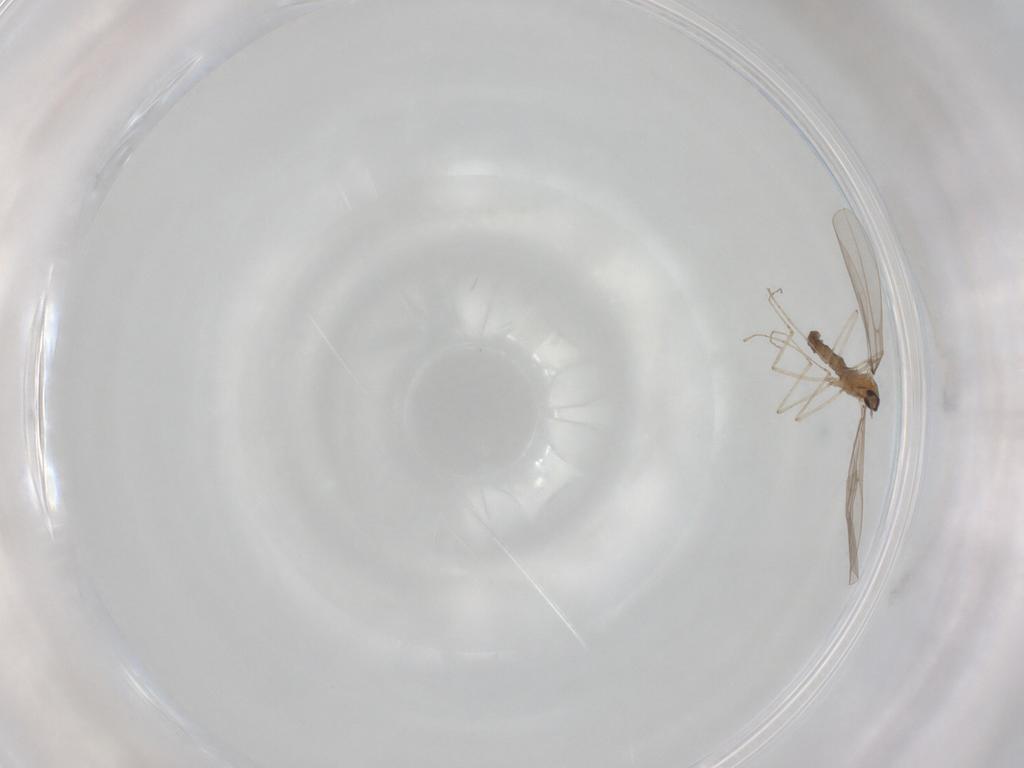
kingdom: Animalia
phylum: Arthropoda
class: Insecta
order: Diptera
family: Cecidomyiidae
